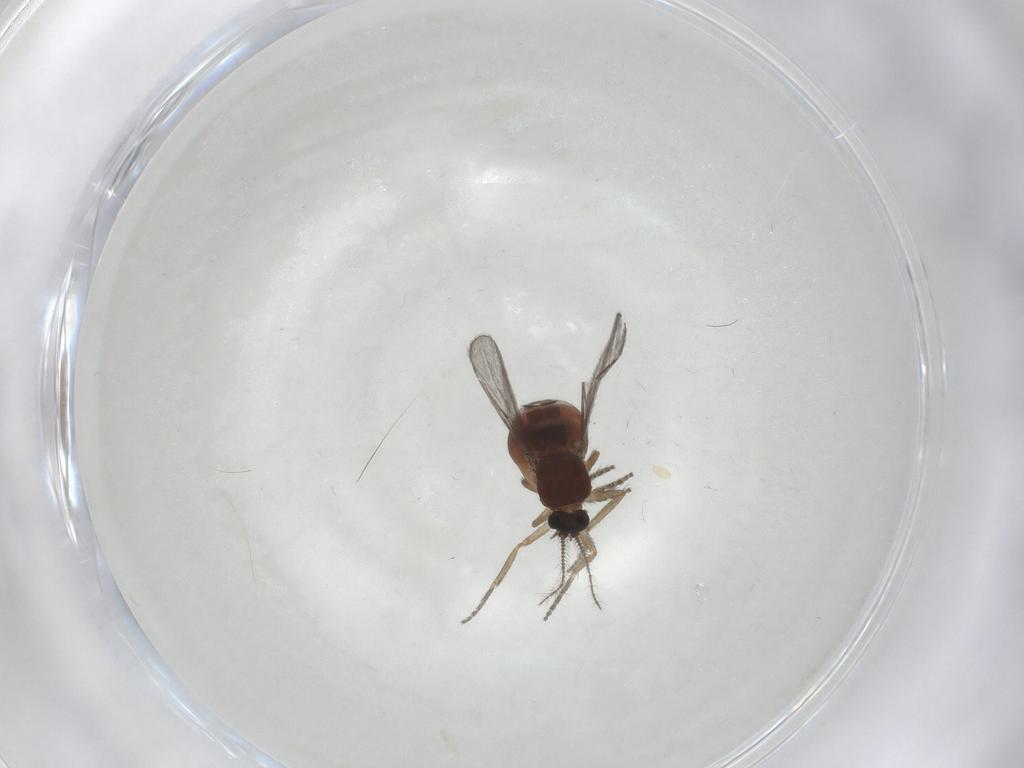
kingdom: Animalia
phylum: Arthropoda
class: Insecta
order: Diptera
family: Ceratopogonidae
